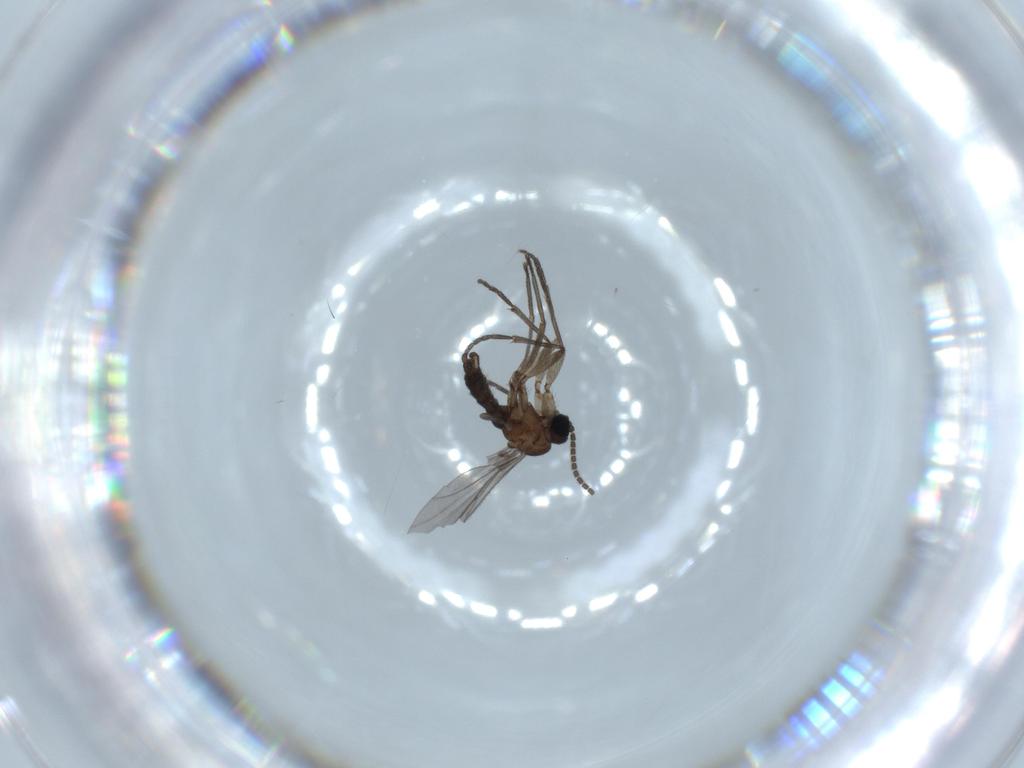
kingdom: Animalia
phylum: Arthropoda
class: Insecta
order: Diptera
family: Sciaridae
